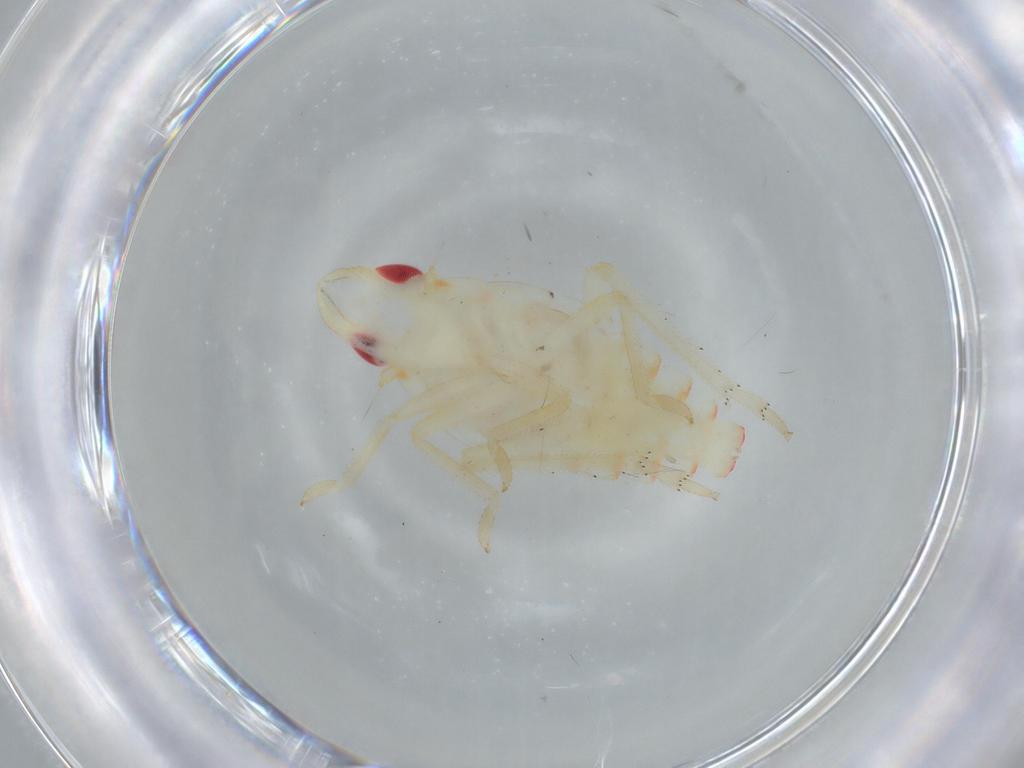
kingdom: Animalia
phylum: Arthropoda
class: Insecta
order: Hemiptera
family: Tropiduchidae
